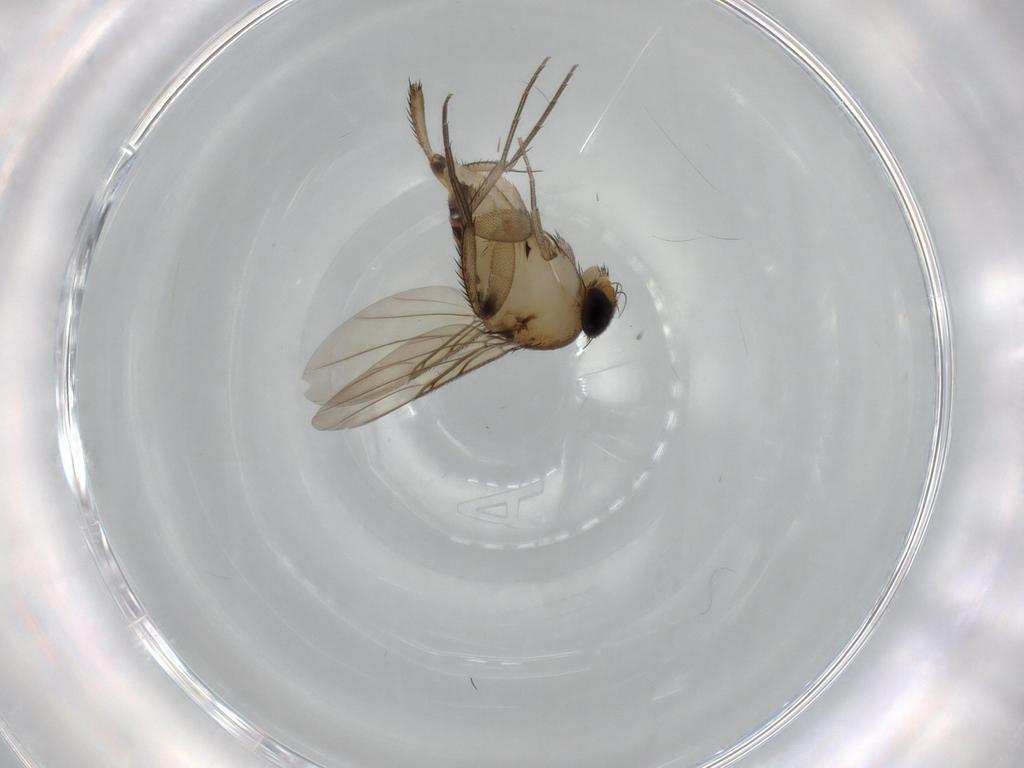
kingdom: Animalia
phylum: Arthropoda
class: Insecta
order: Diptera
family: Phoridae
